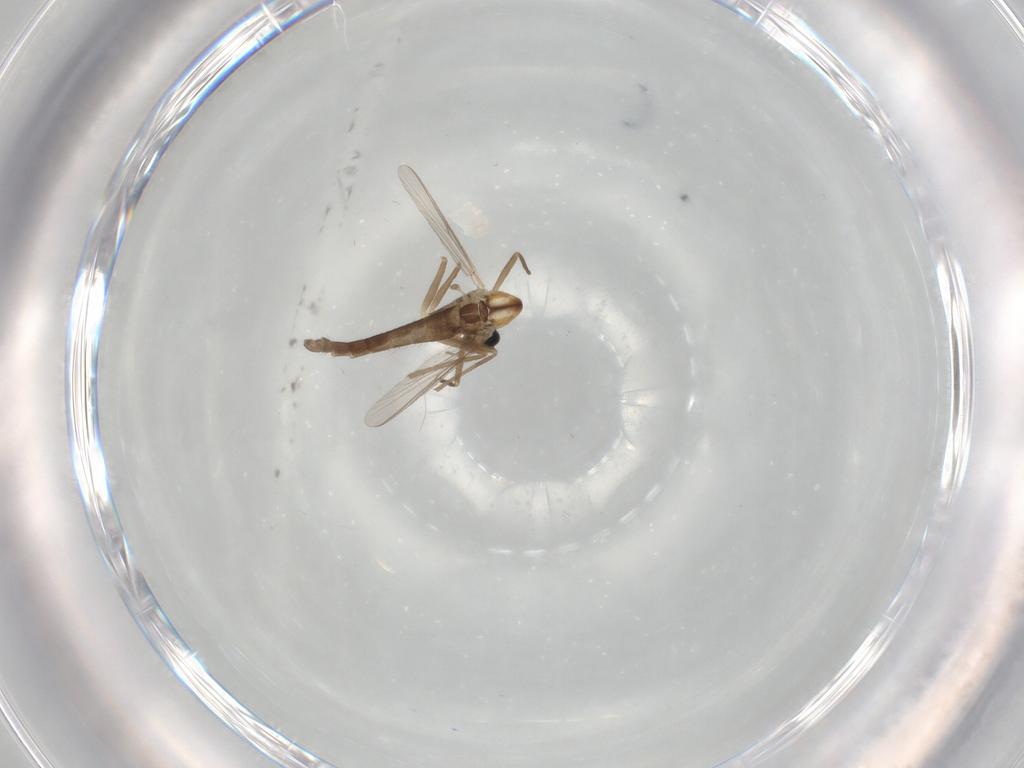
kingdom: Animalia
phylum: Arthropoda
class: Insecta
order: Diptera
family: Chironomidae
